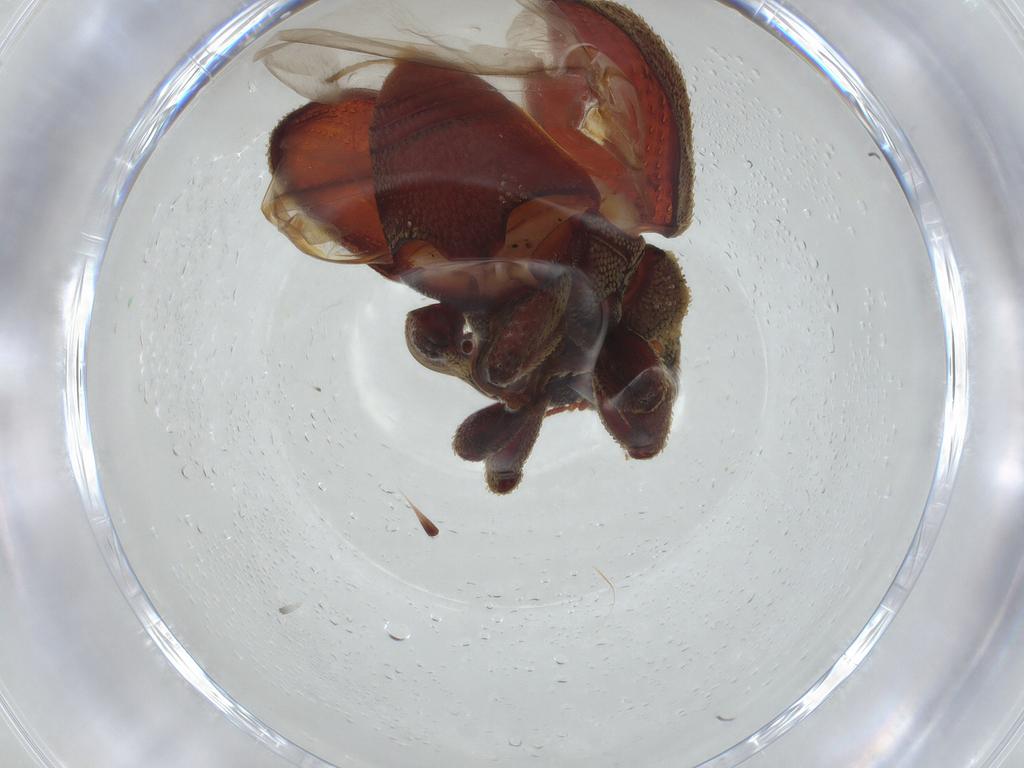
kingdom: Animalia
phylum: Arthropoda
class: Insecta
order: Coleoptera
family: Curculionidae
